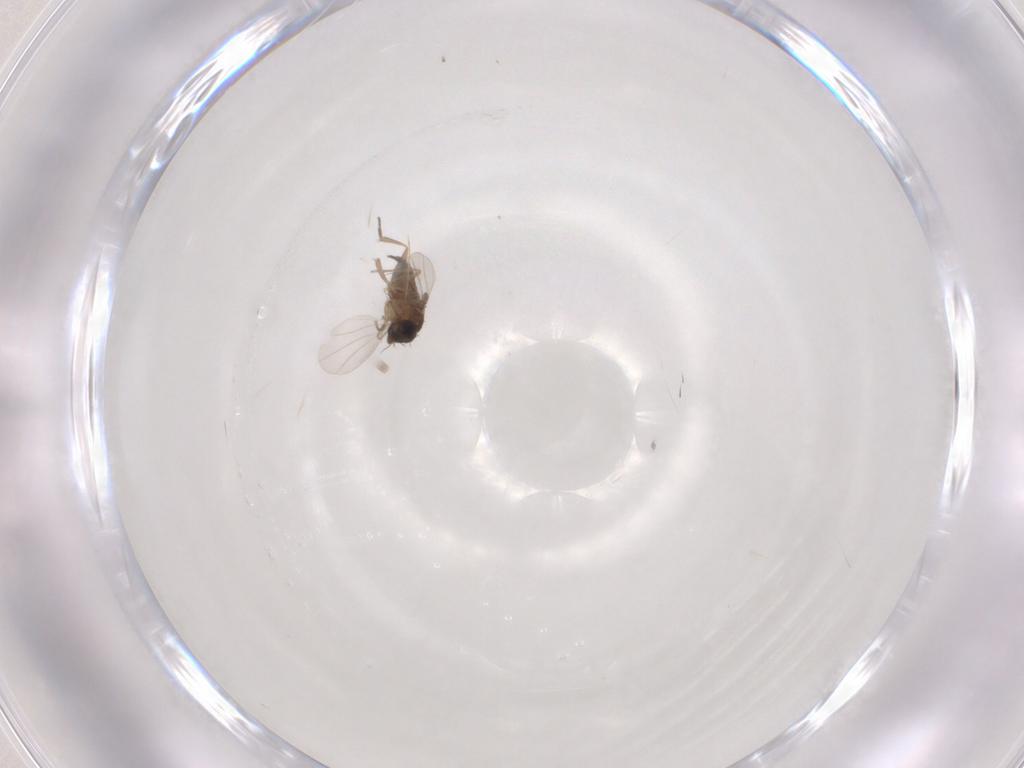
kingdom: Animalia
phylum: Arthropoda
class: Insecta
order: Diptera
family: Phoridae
